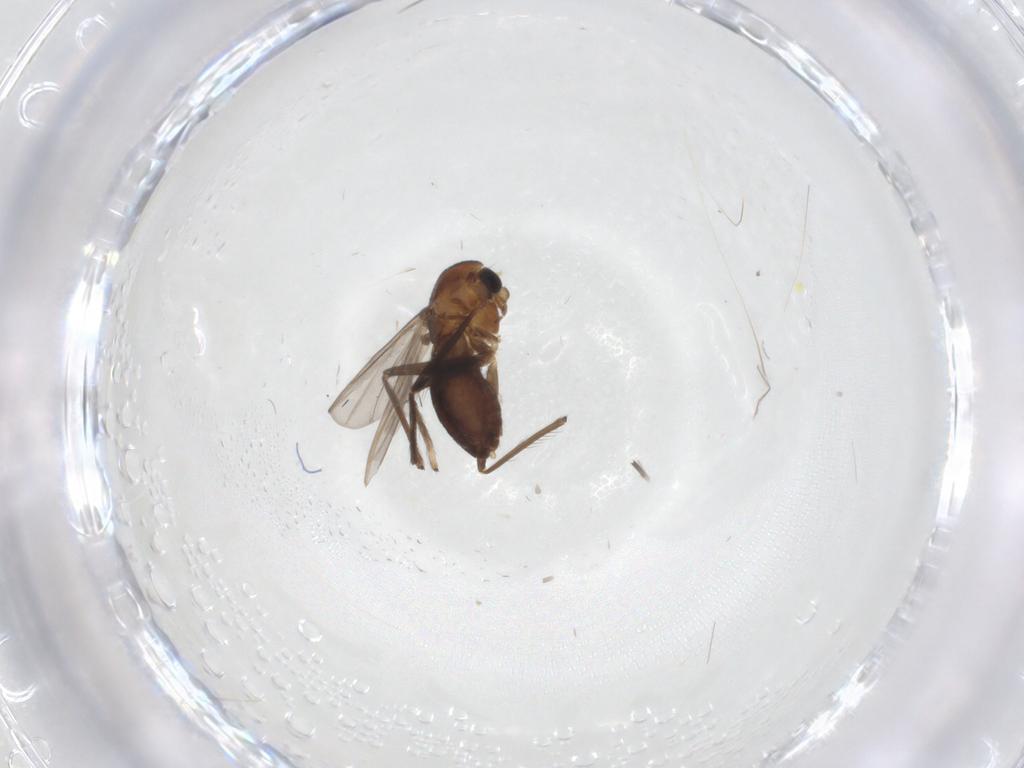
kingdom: Animalia
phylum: Arthropoda
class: Insecta
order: Diptera
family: Chironomidae
